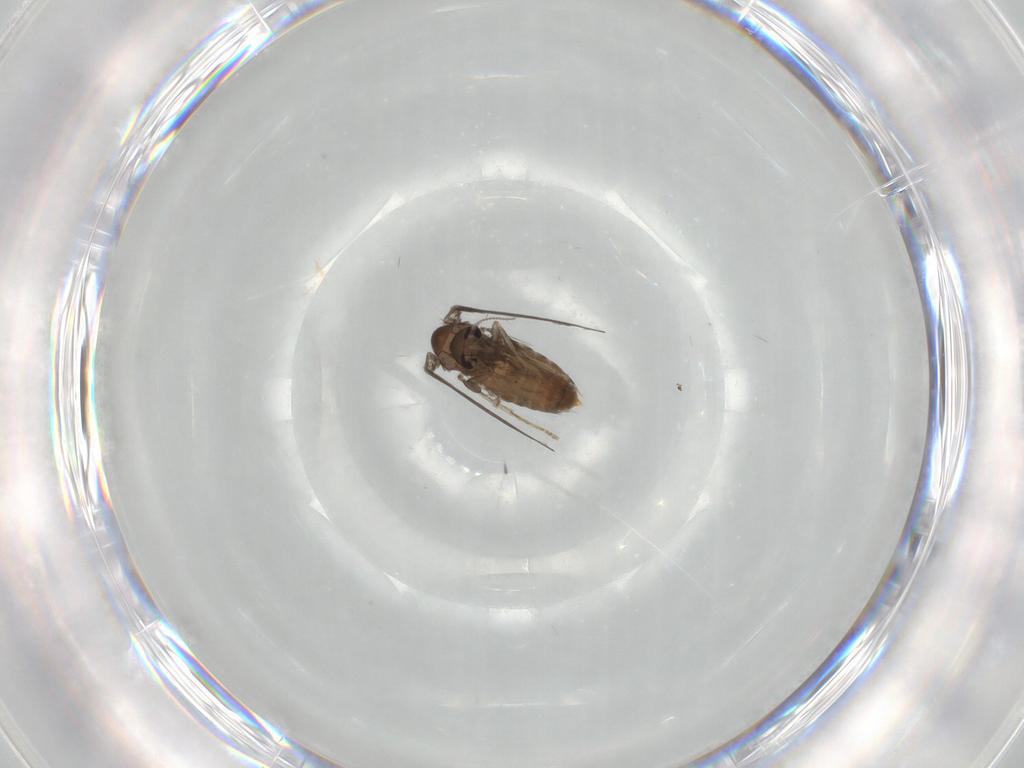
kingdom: Animalia
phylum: Arthropoda
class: Insecta
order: Diptera
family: Psychodidae
